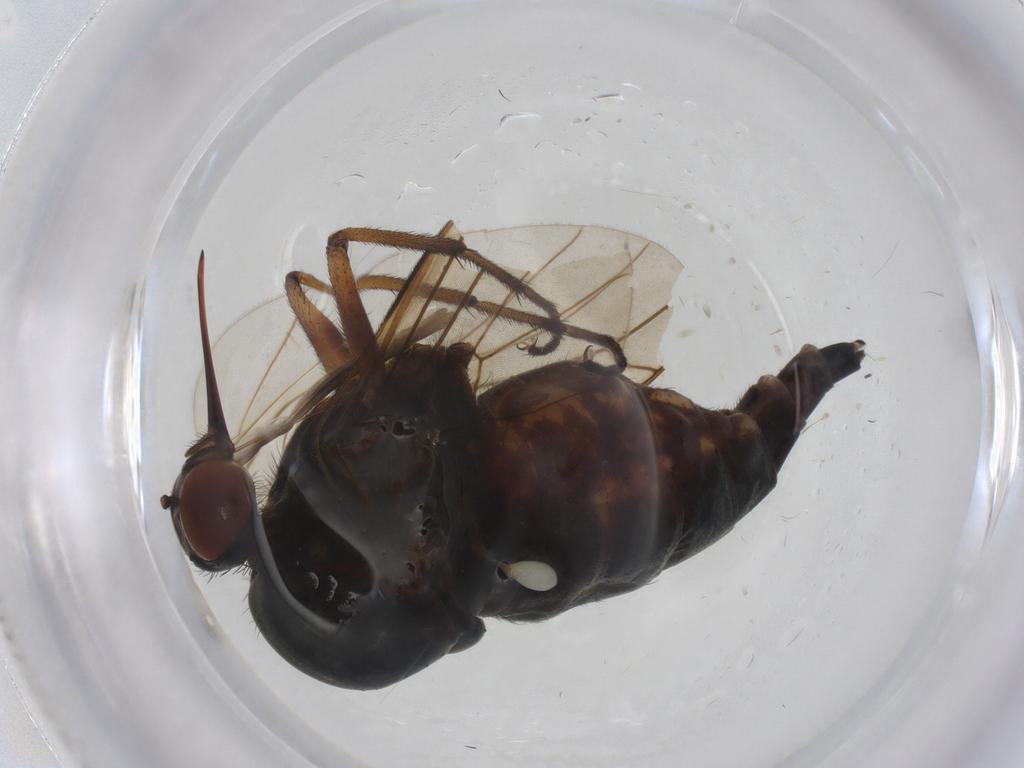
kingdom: Animalia
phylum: Arthropoda
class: Insecta
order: Diptera
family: Empididae
